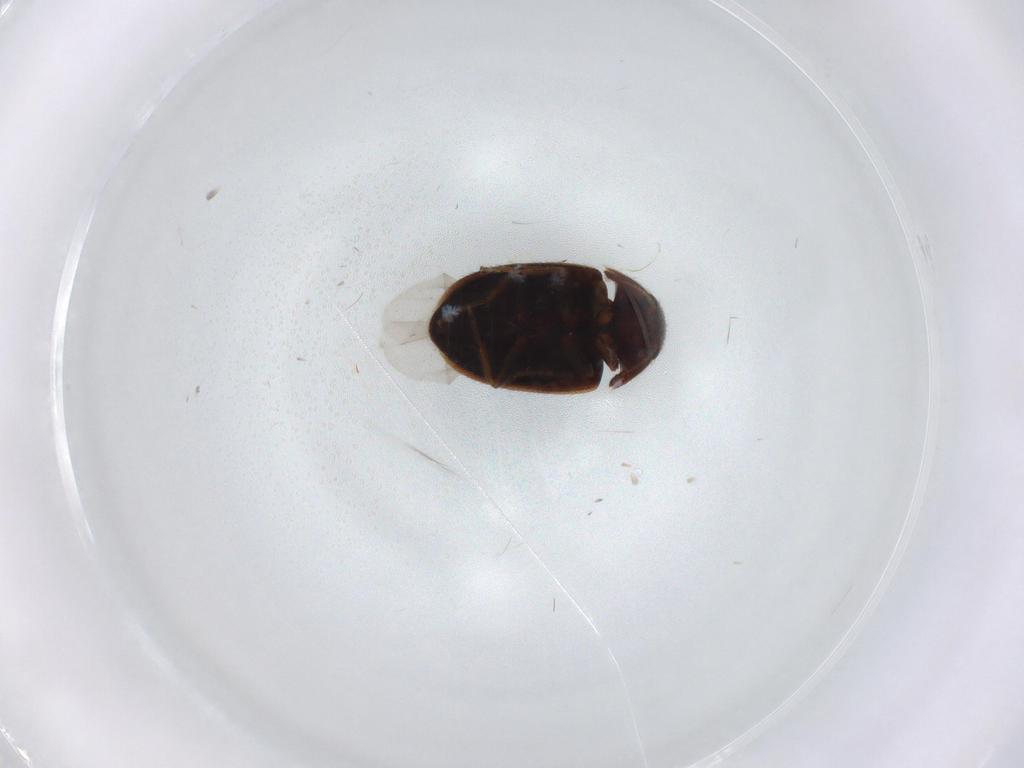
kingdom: Animalia
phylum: Arthropoda
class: Insecta
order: Coleoptera
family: Mycetophagidae
